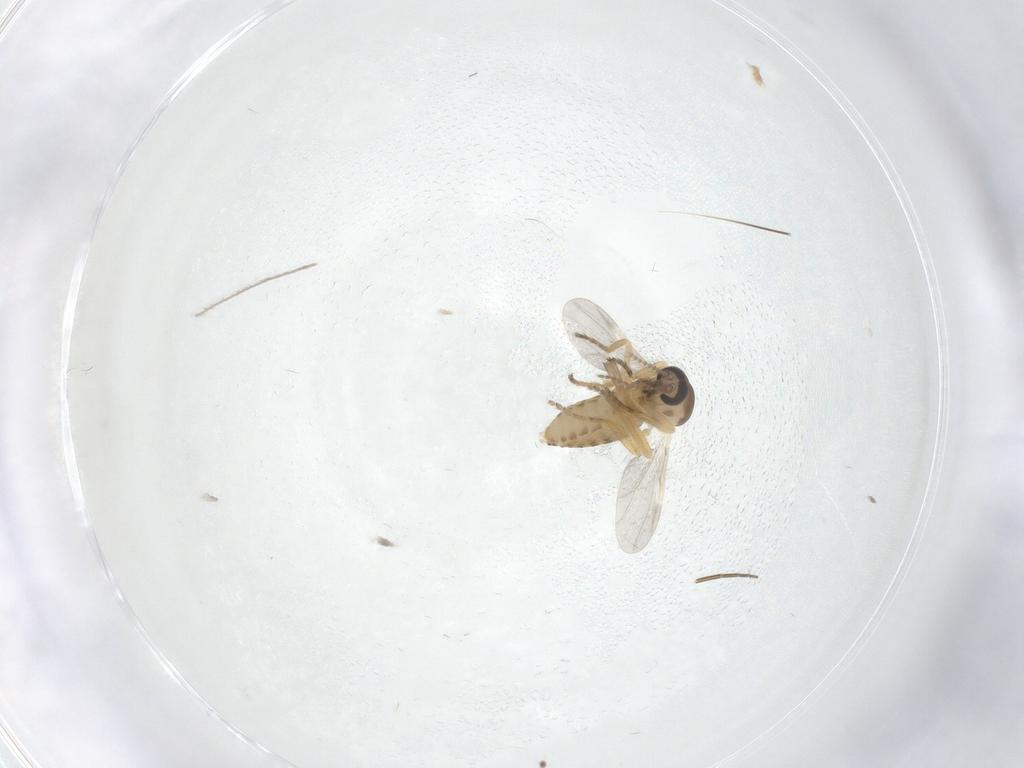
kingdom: Animalia
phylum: Arthropoda
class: Insecta
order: Diptera
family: Ceratopogonidae
